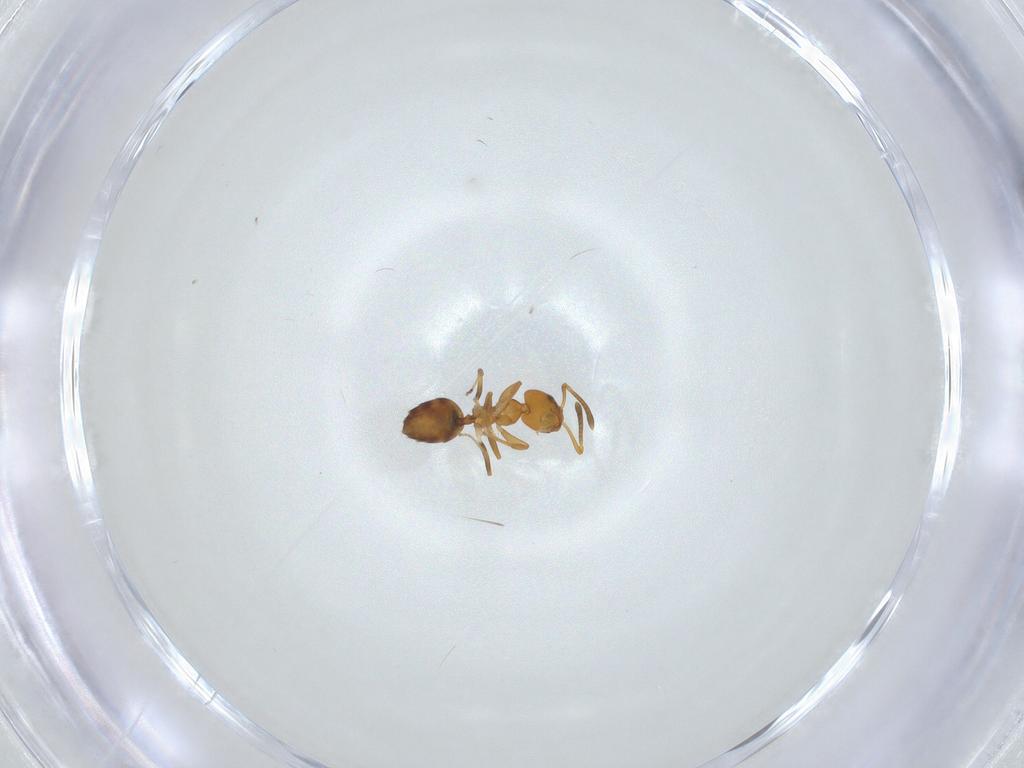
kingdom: Animalia
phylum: Arthropoda
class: Insecta
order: Hymenoptera
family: Formicidae
